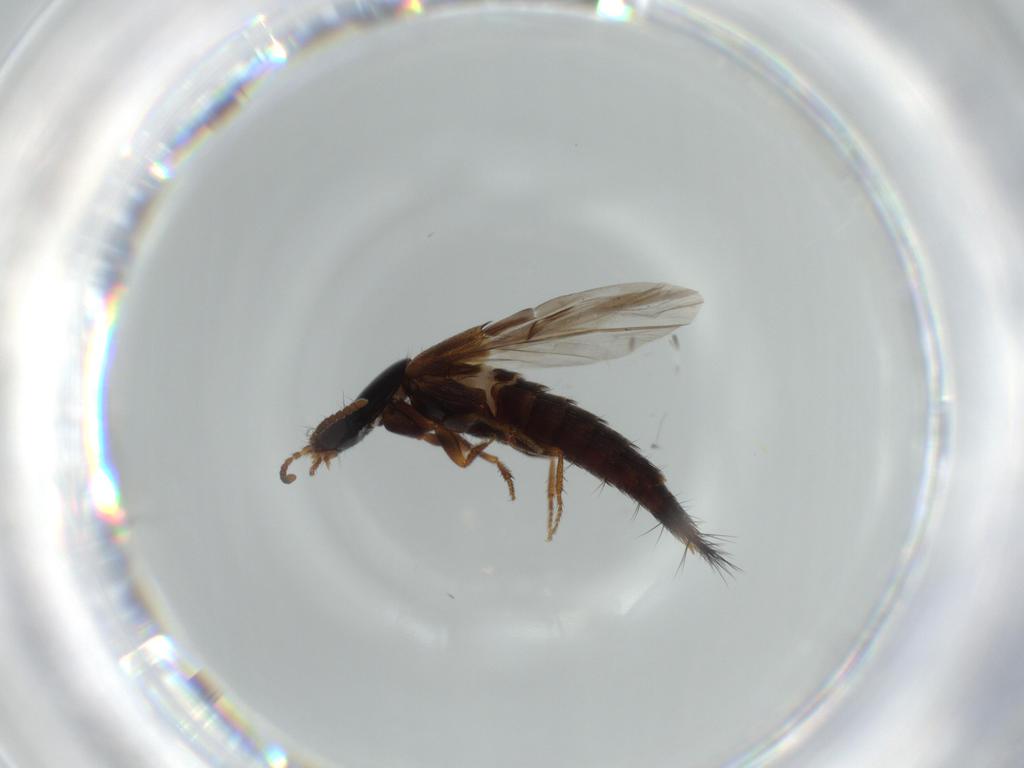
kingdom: Animalia
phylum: Arthropoda
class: Insecta
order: Coleoptera
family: Staphylinidae
